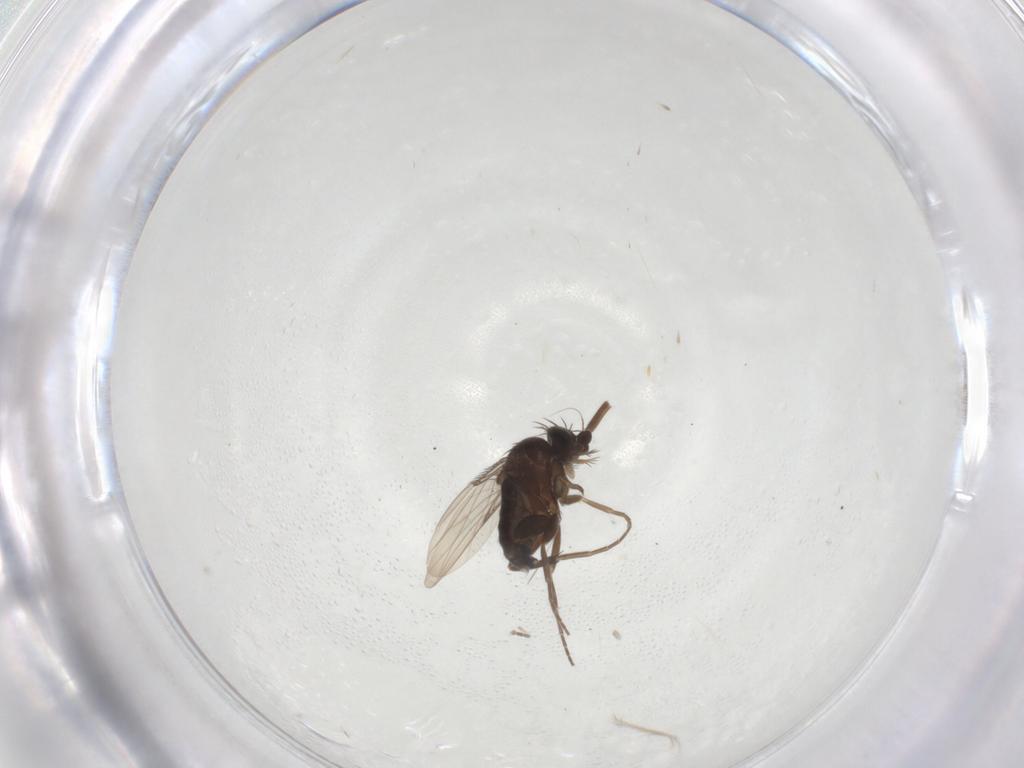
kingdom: Animalia
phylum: Arthropoda
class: Insecta
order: Diptera
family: Phoridae
